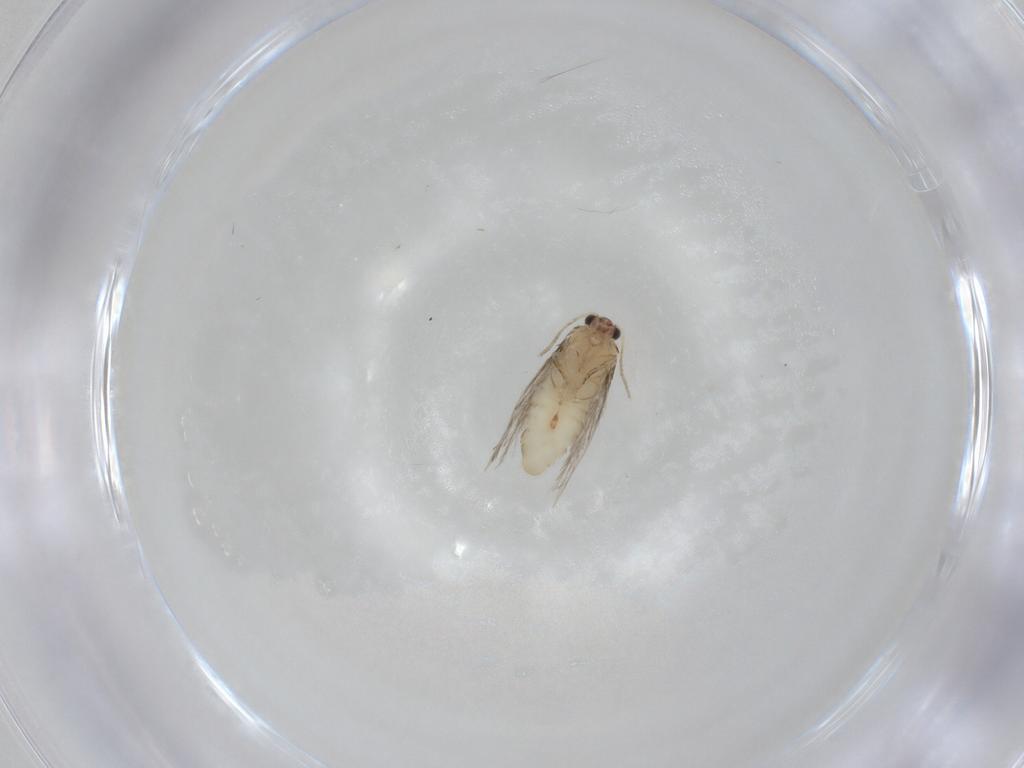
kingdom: Animalia
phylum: Arthropoda
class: Insecta
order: Lepidoptera
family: Nepticulidae
